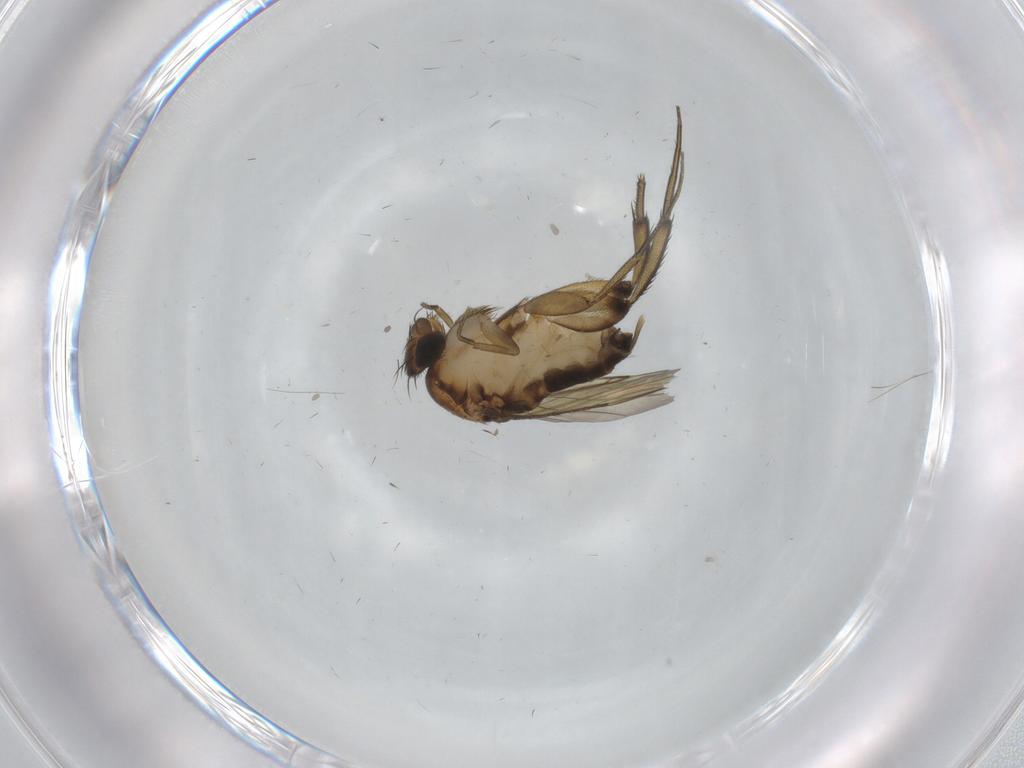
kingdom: Animalia
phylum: Arthropoda
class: Insecta
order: Diptera
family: Phoridae
